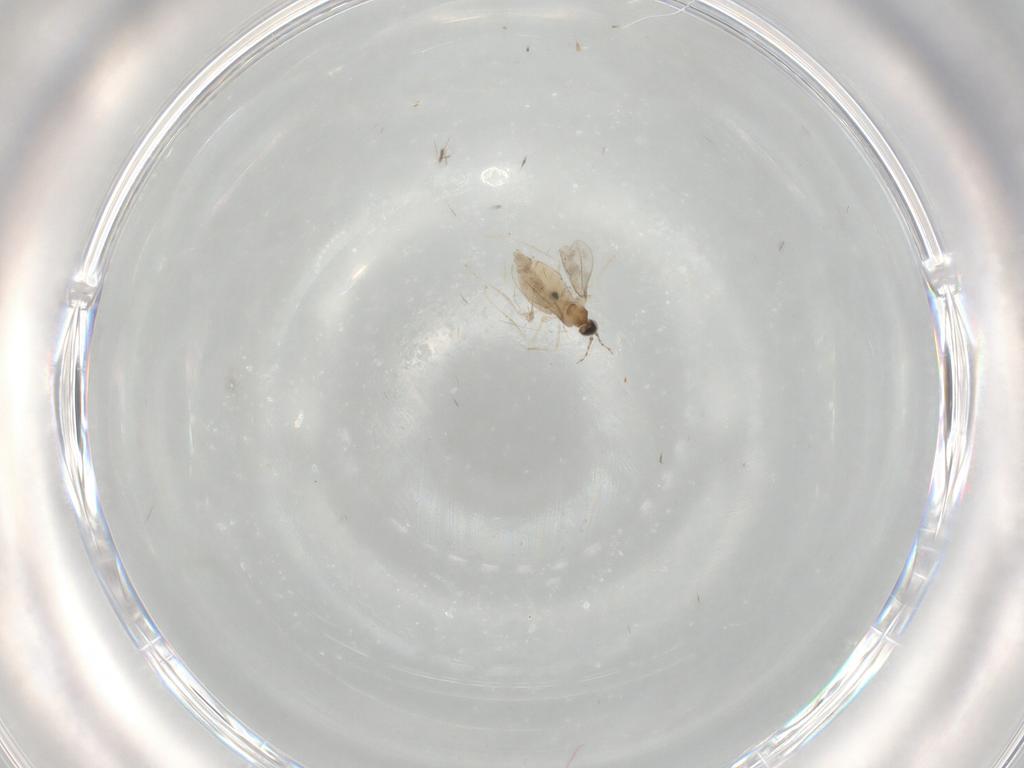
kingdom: Animalia
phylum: Arthropoda
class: Insecta
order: Diptera
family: Cecidomyiidae
